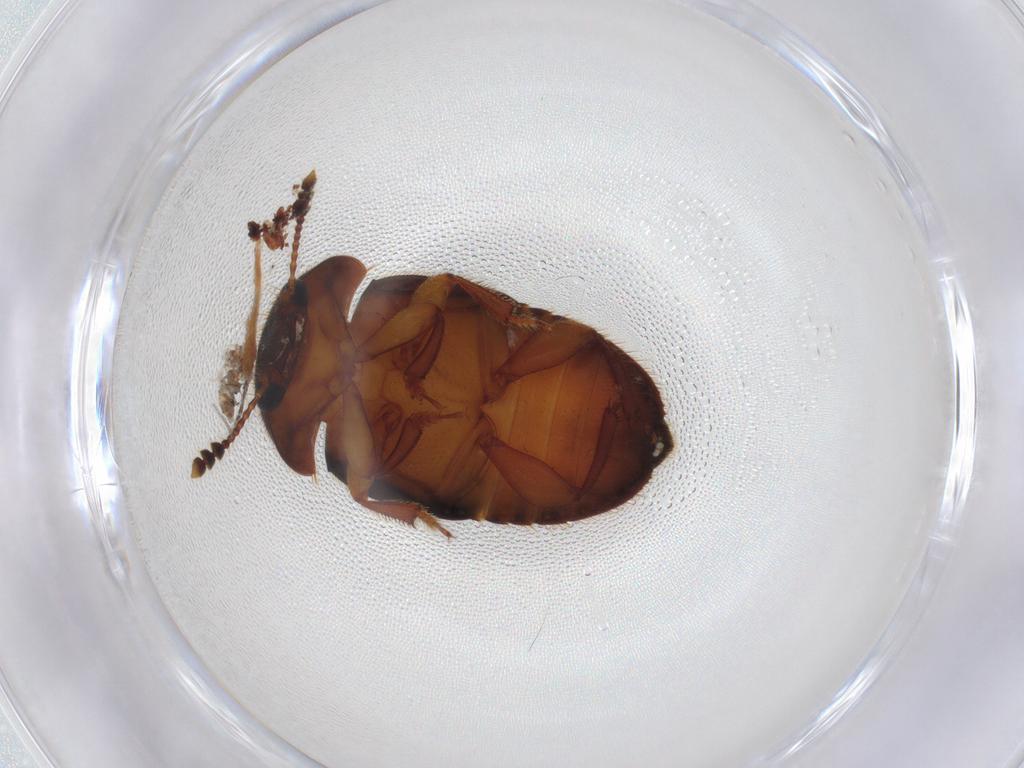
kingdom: Animalia
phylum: Arthropoda
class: Insecta
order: Coleoptera
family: Nitidulidae
